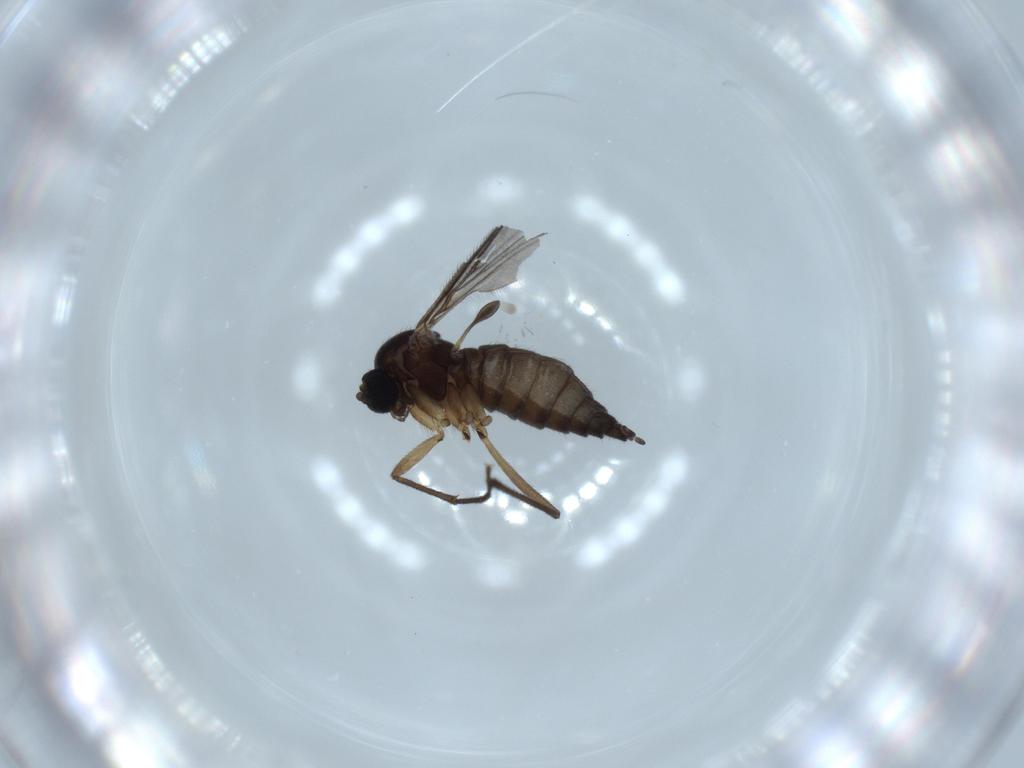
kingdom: Animalia
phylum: Arthropoda
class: Insecta
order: Diptera
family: Sciaridae
